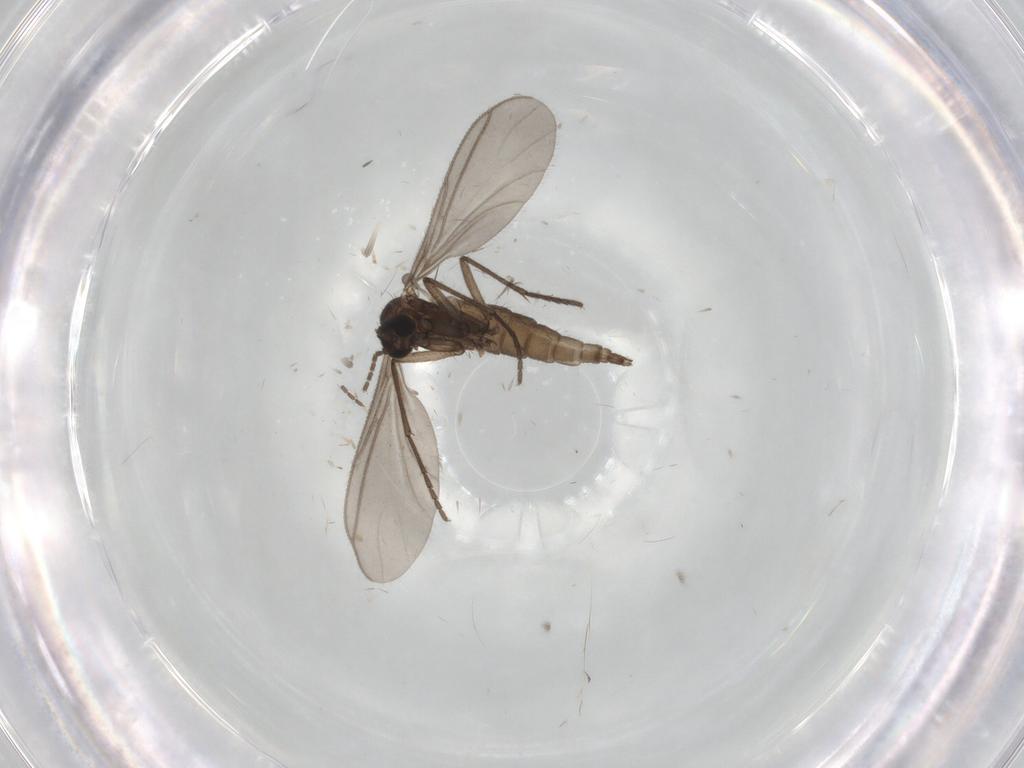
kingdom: Animalia
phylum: Arthropoda
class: Insecta
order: Diptera
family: Sciaridae
